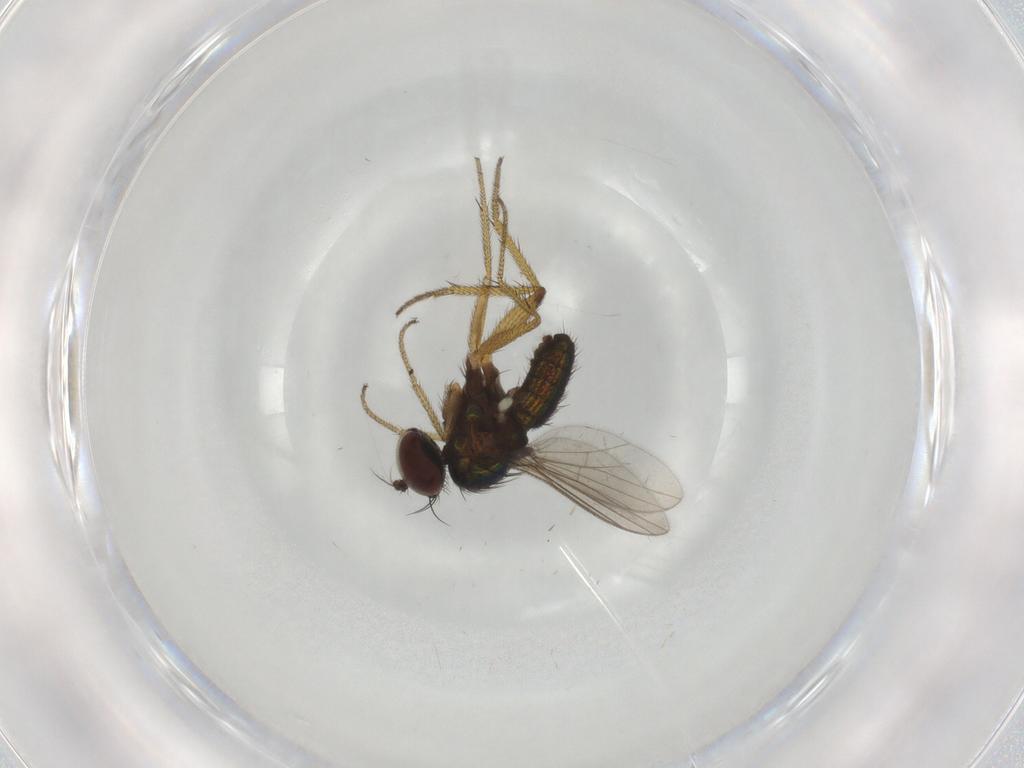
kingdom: Animalia
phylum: Arthropoda
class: Insecta
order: Diptera
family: Dolichopodidae
